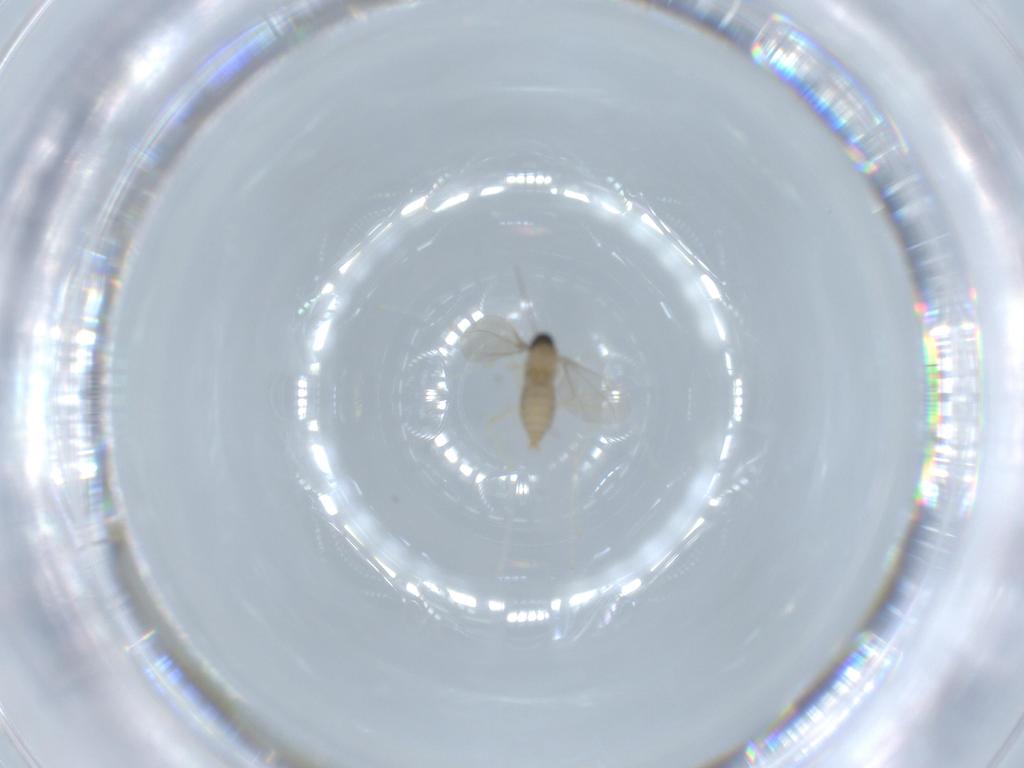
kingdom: Animalia
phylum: Arthropoda
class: Insecta
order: Diptera
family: Cecidomyiidae
